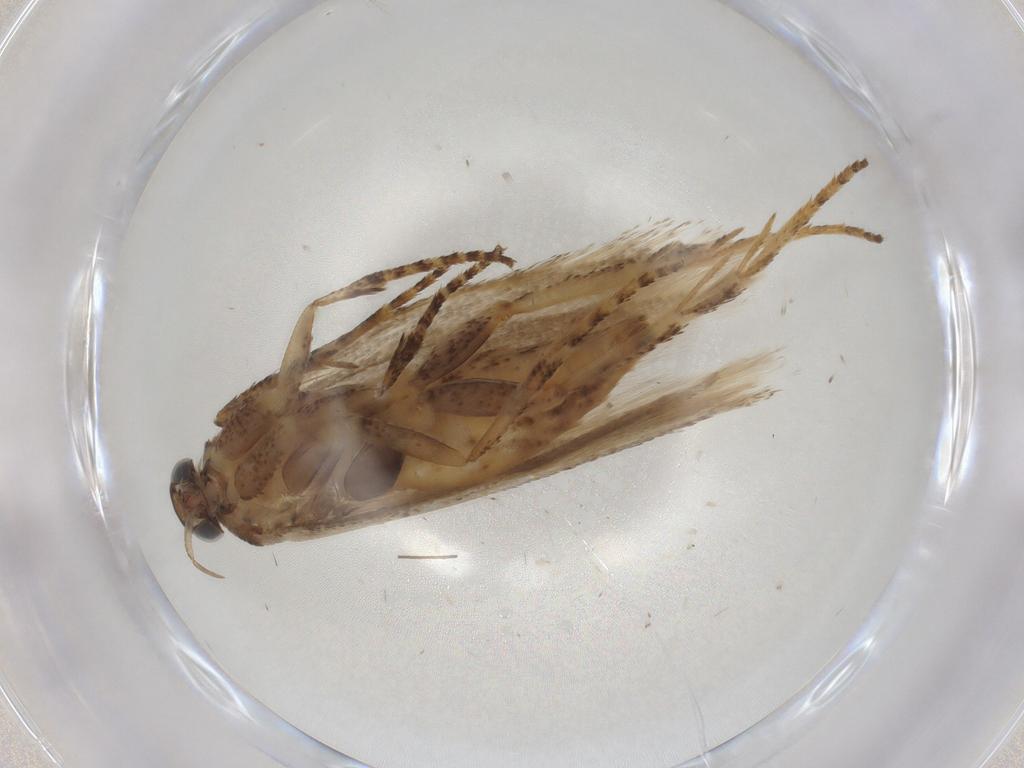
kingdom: Animalia
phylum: Arthropoda
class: Insecta
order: Lepidoptera
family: Gelechiidae
